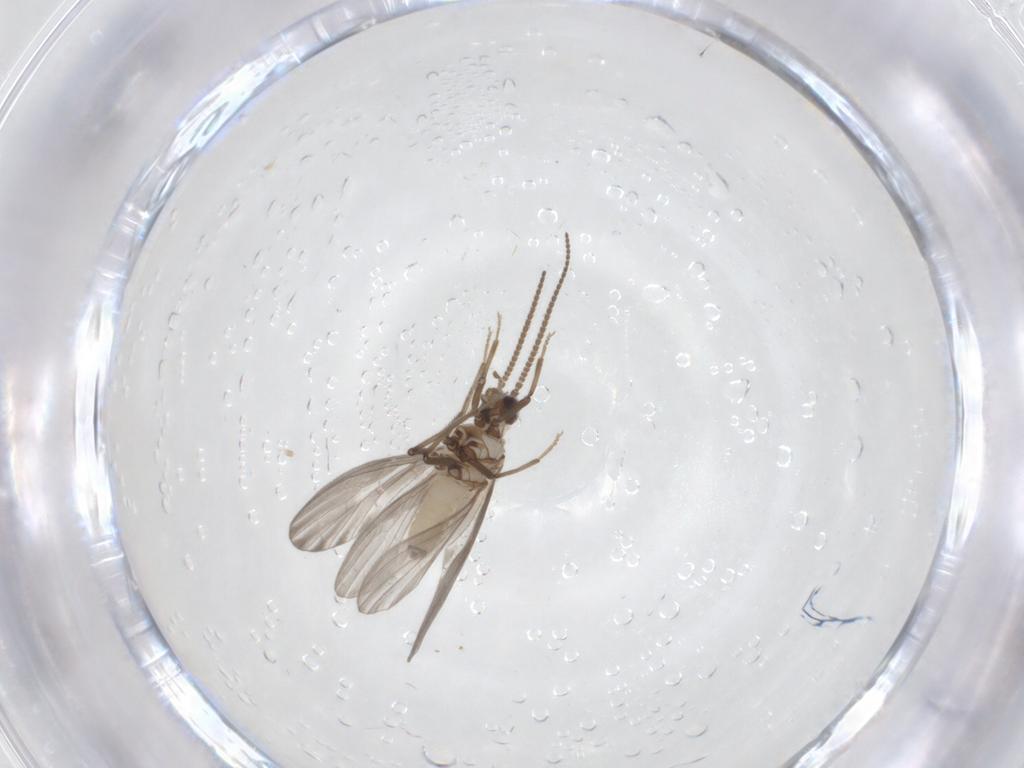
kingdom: Animalia
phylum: Arthropoda
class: Insecta
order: Neuroptera
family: Coniopterygidae
